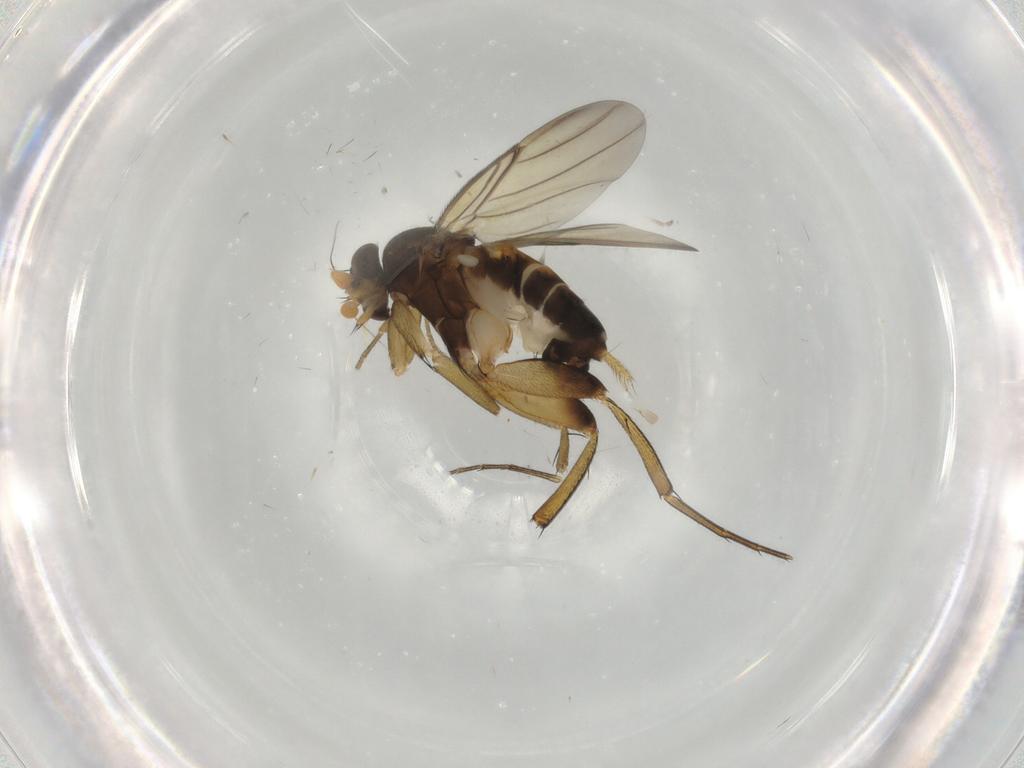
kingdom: Animalia
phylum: Arthropoda
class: Insecta
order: Diptera
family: Phoridae
